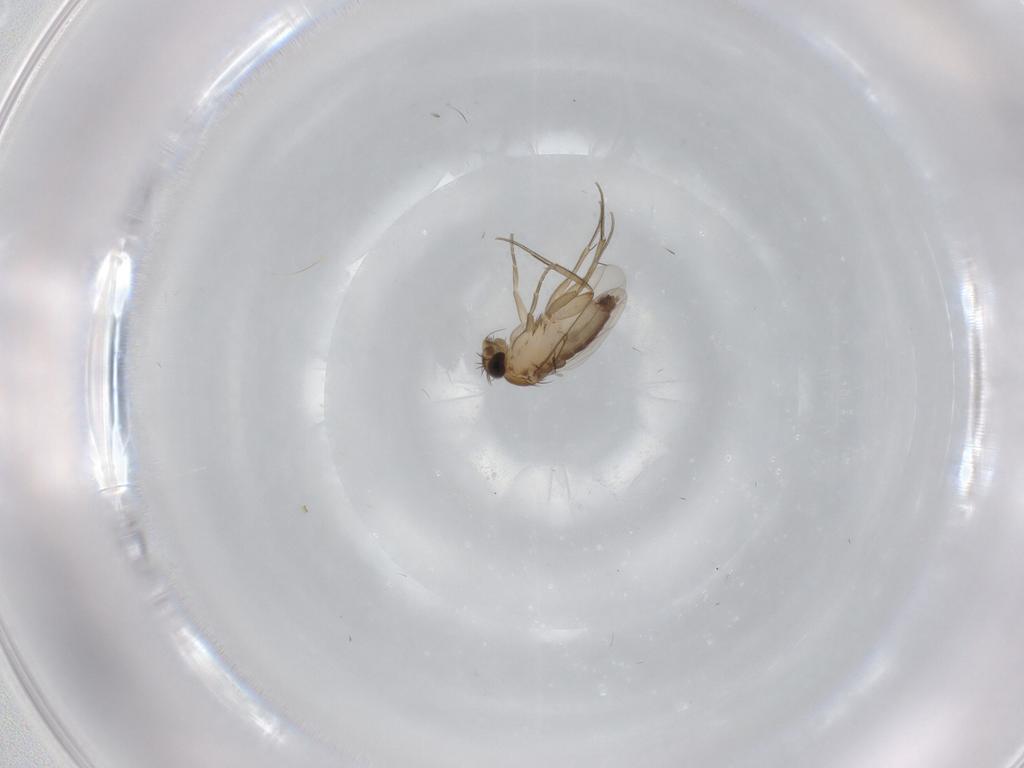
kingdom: Animalia
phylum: Arthropoda
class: Insecta
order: Diptera
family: Phoridae
